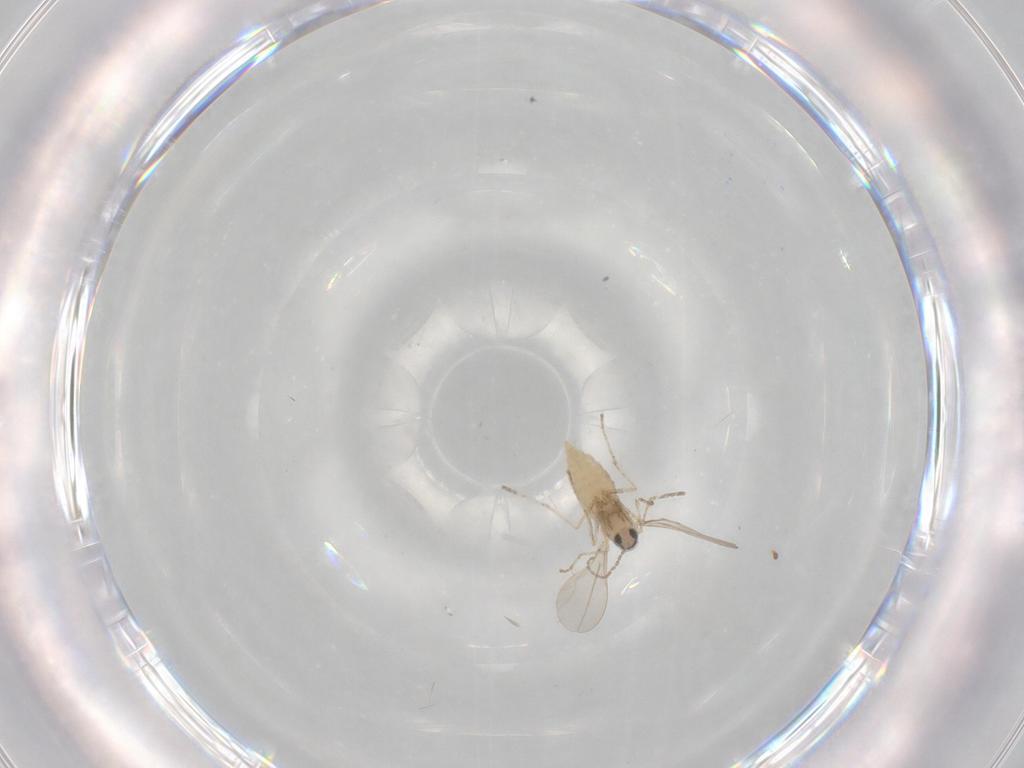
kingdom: Animalia
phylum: Arthropoda
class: Insecta
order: Diptera
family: Cecidomyiidae
